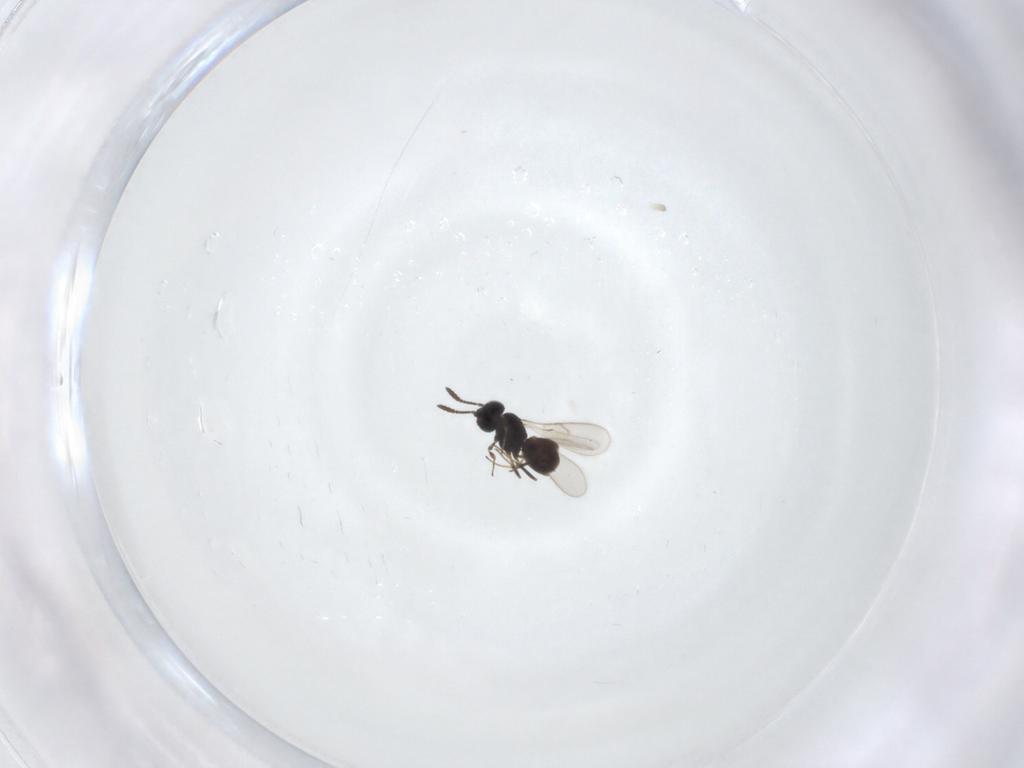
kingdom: Animalia
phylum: Arthropoda
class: Insecta
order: Hymenoptera
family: Scelionidae
